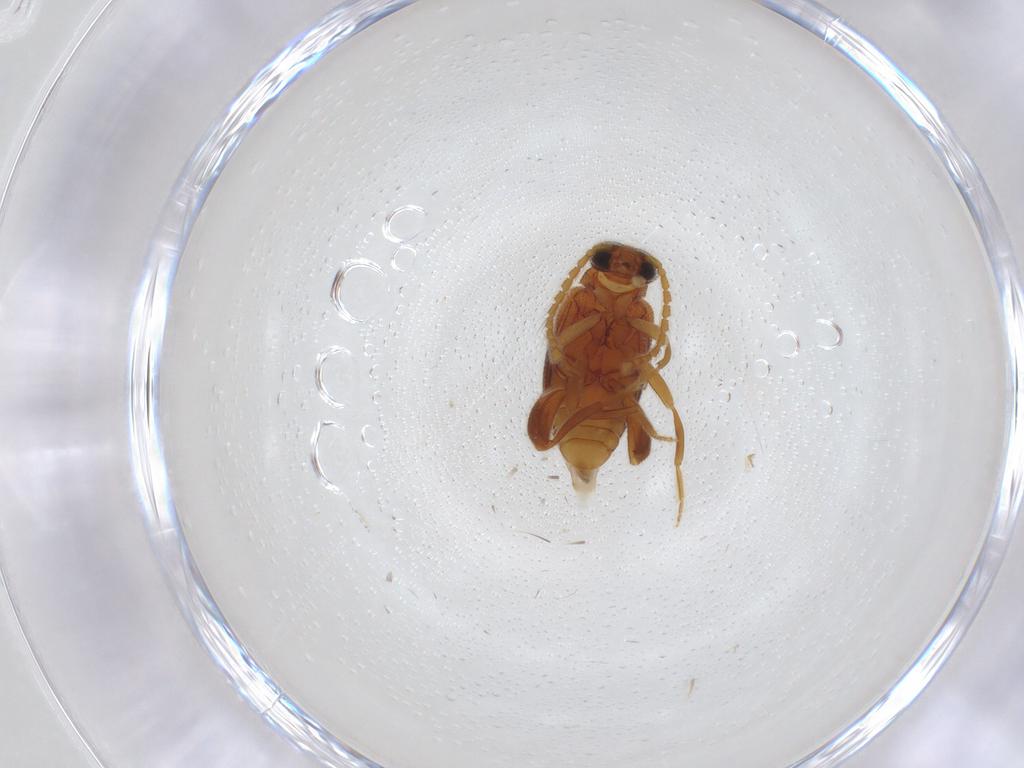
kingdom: Animalia
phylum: Arthropoda
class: Insecta
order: Coleoptera
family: Aderidae
